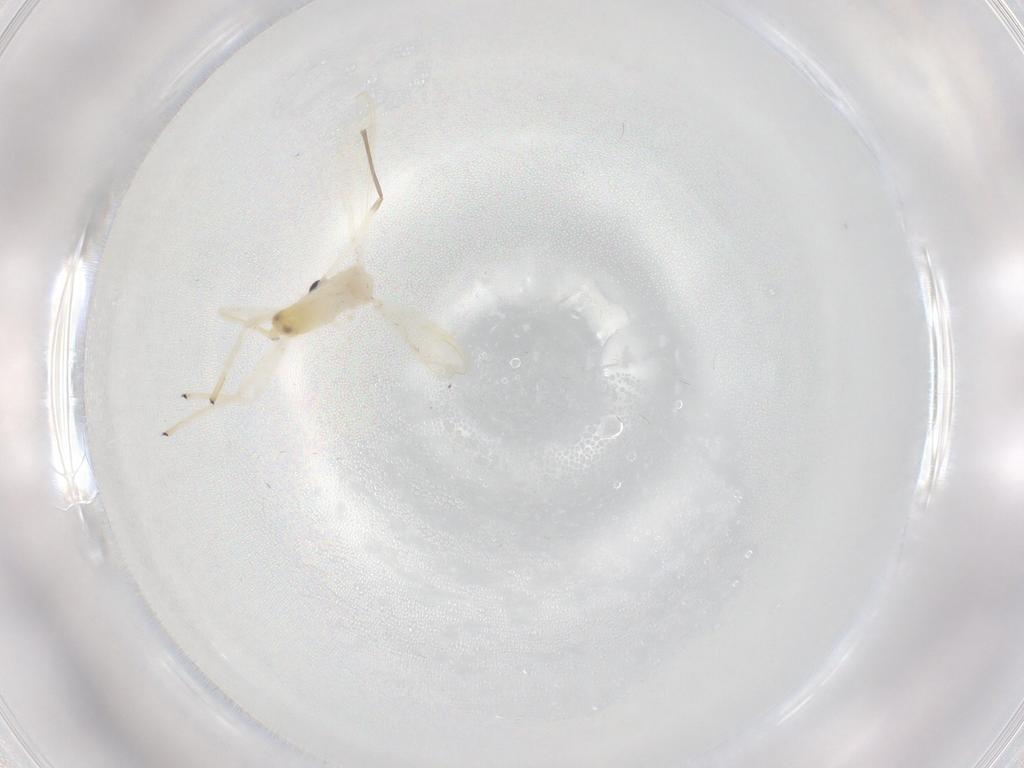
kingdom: Animalia
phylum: Arthropoda
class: Insecta
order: Diptera
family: Chironomidae
